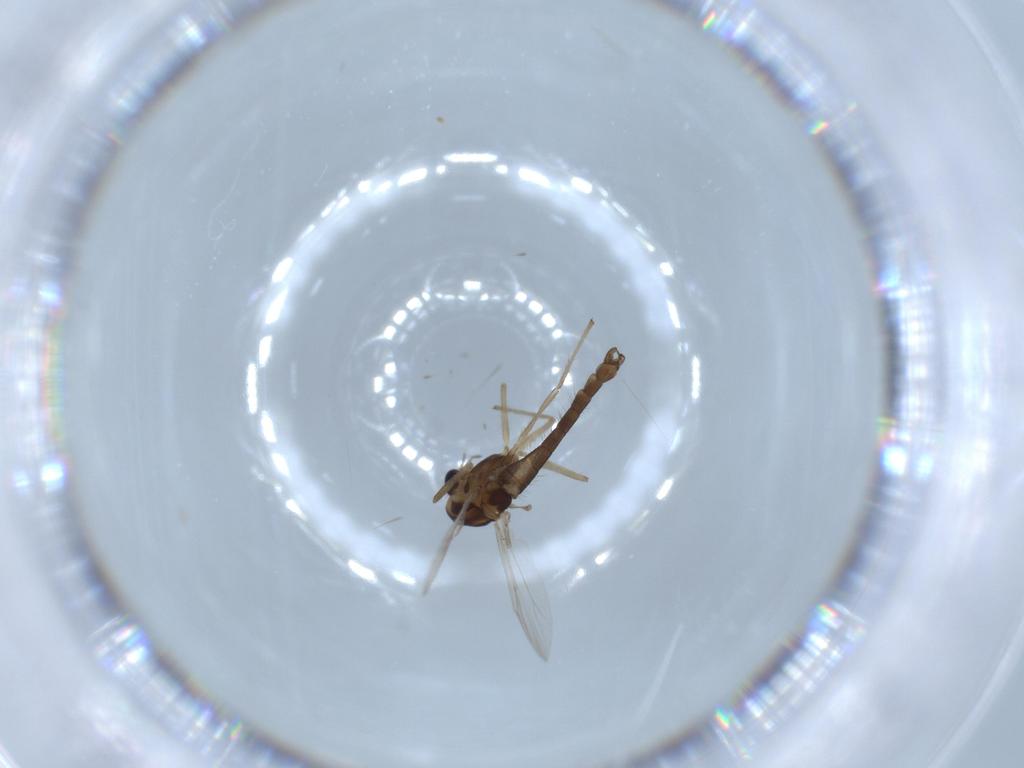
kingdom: Animalia
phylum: Arthropoda
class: Insecta
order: Diptera
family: Chironomidae
